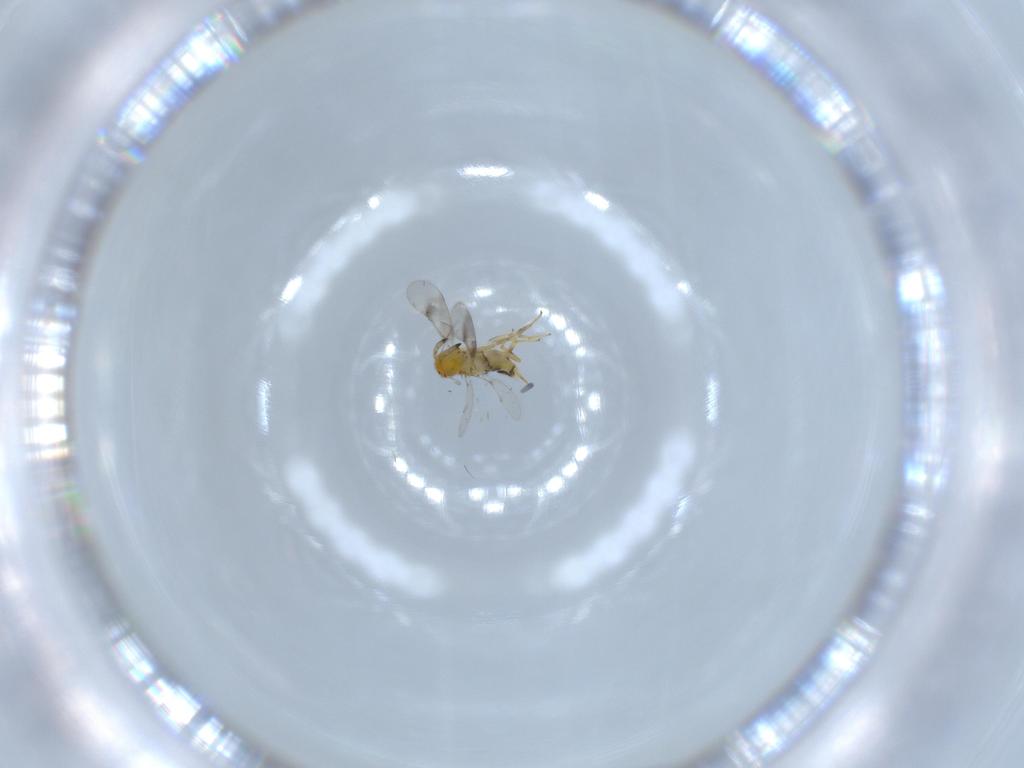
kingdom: Animalia
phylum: Arthropoda
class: Insecta
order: Hymenoptera
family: Aphelinidae
